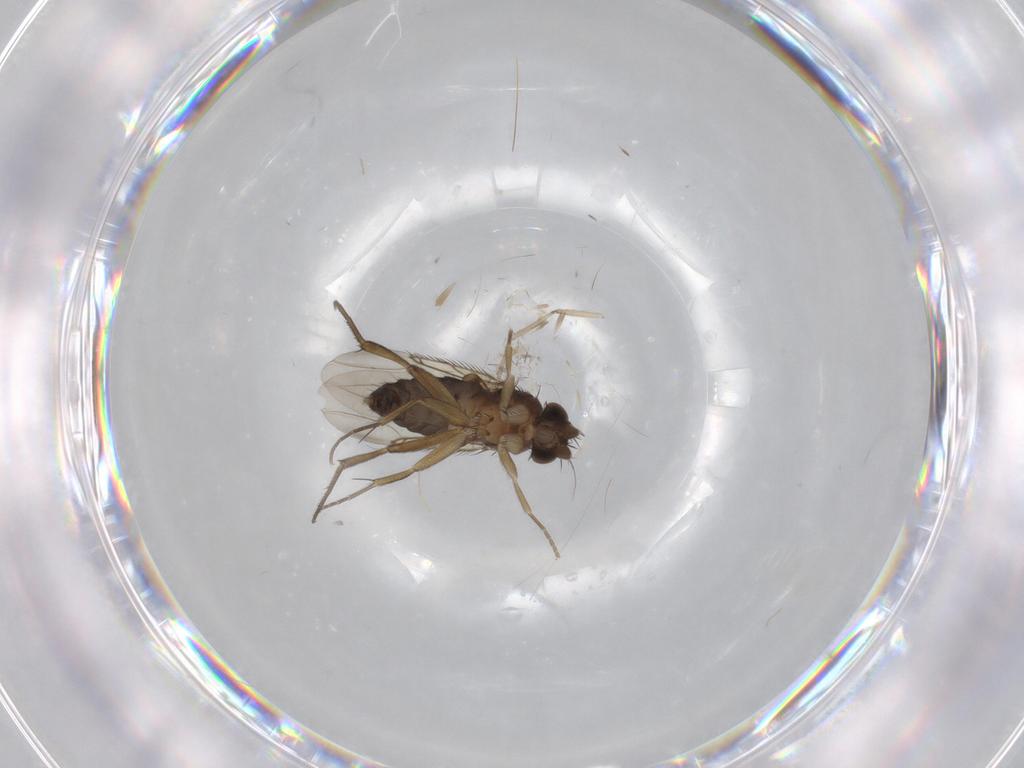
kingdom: Animalia
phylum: Arthropoda
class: Insecta
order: Diptera
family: Phoridae
